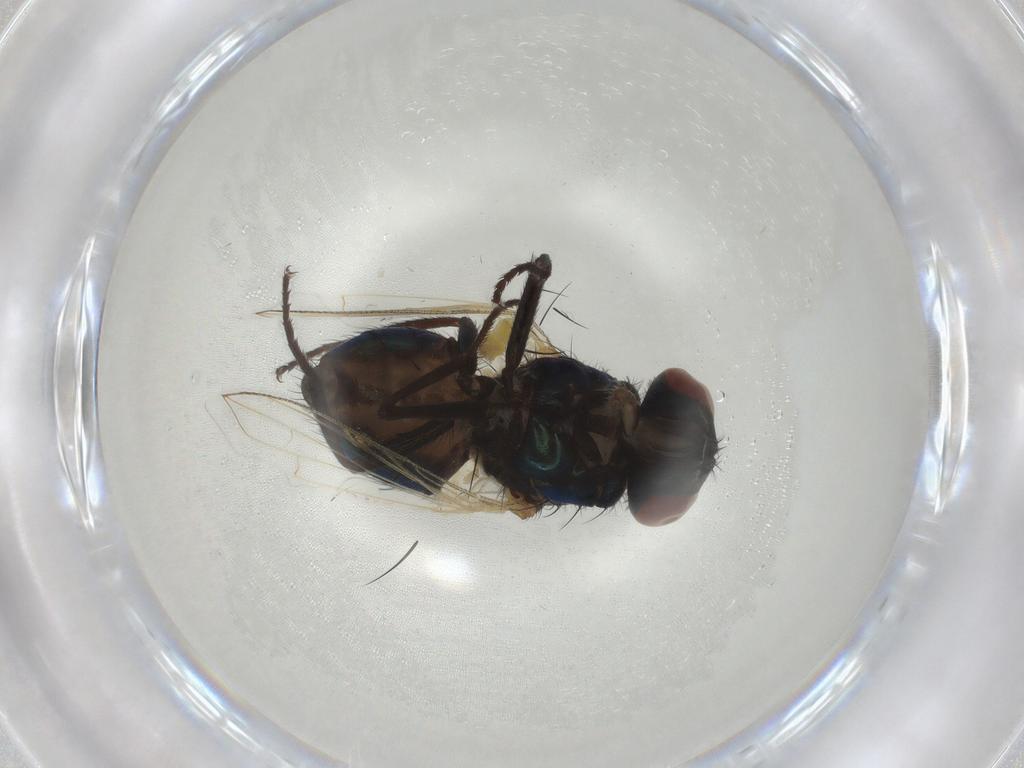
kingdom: Animalia
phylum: Arthropoda
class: Insecta
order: Diptera
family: Muscidae
